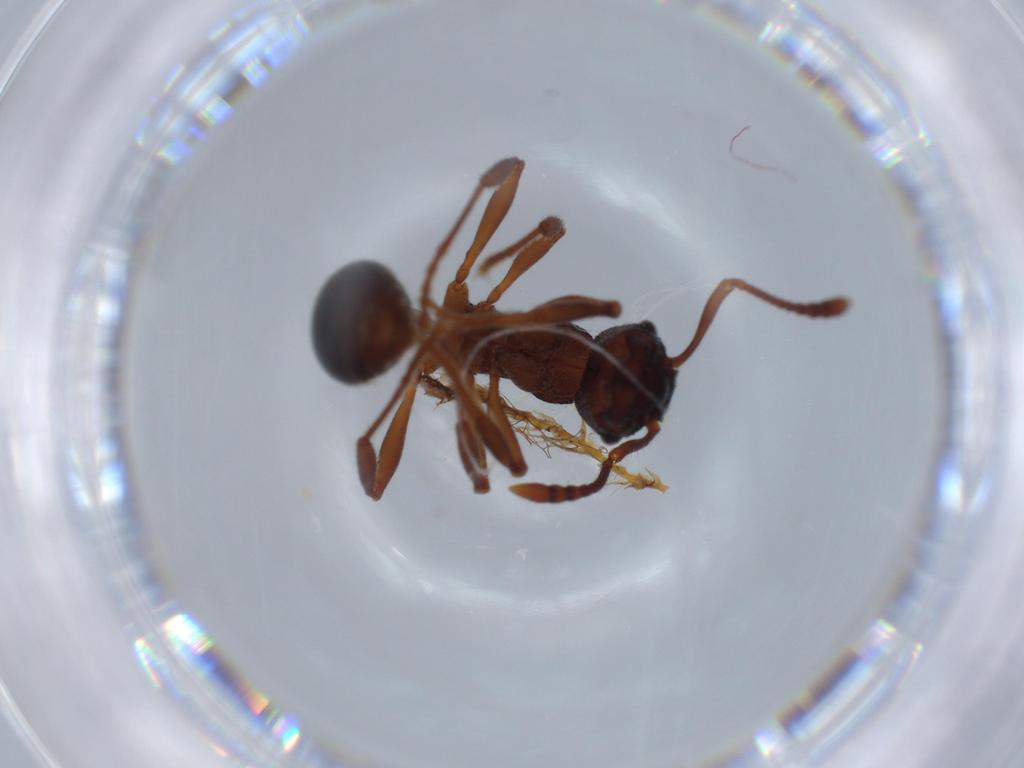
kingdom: Animalia
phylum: Arthropoda
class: Insecta
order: Hymenoptera
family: Formicidae
